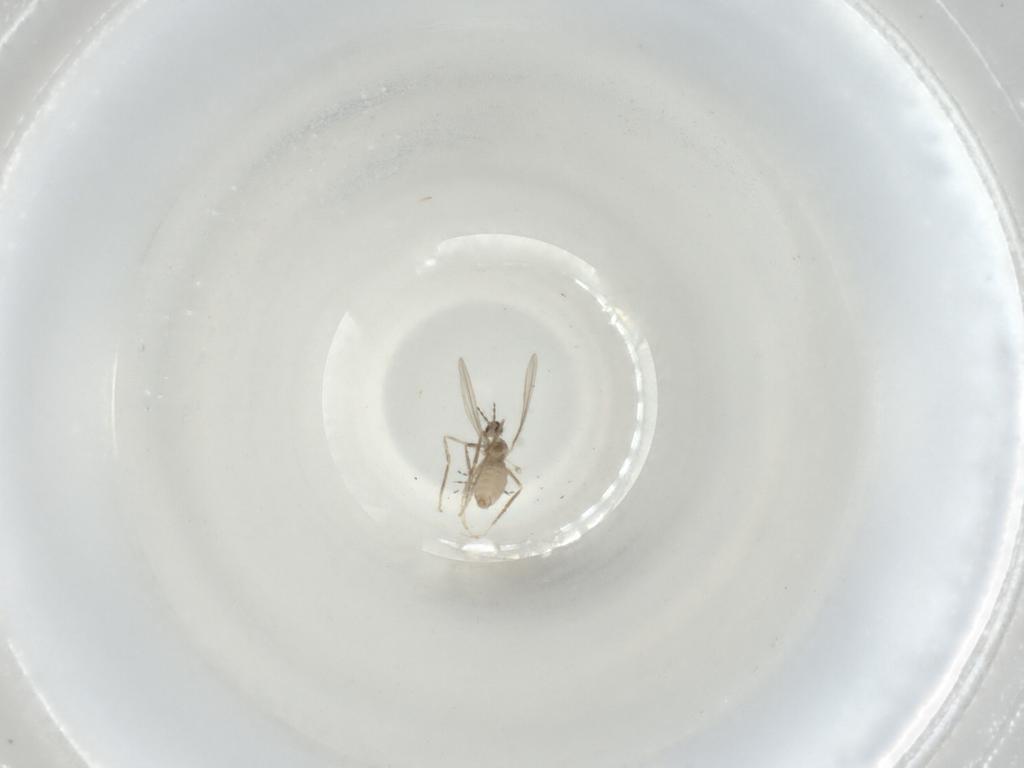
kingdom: Animalia
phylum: Arthropoda
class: Insecta
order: Diptera
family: Cecidomyiidae
